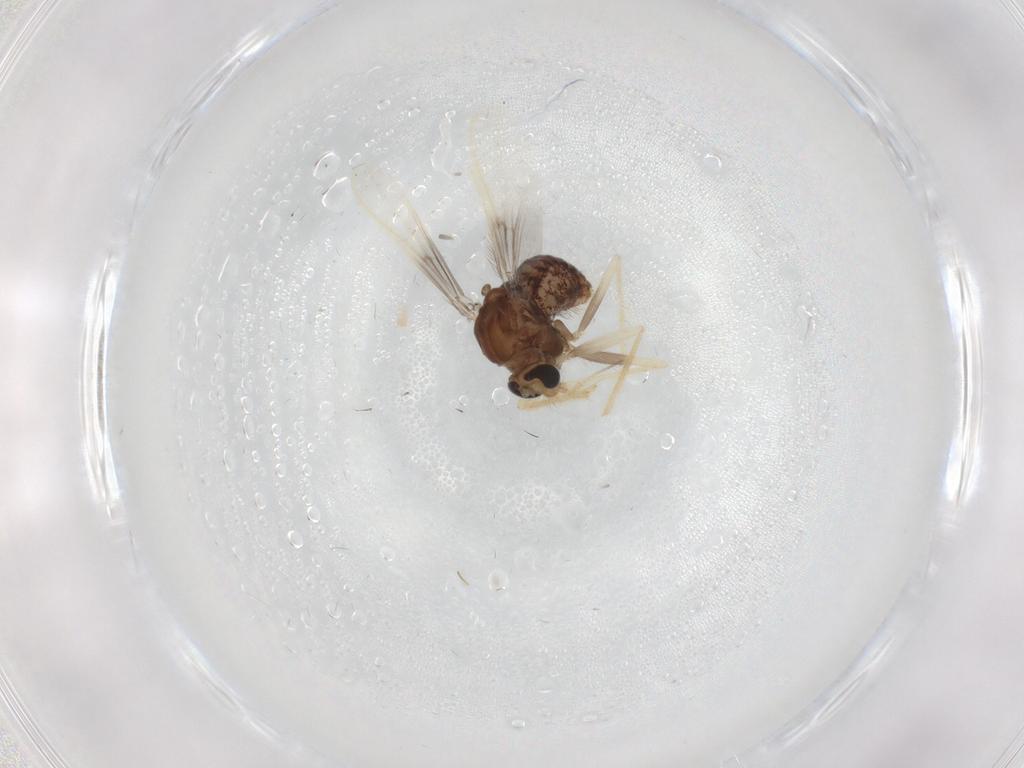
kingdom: Animalia
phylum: Arthropoda
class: Insecta
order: Diptera
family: Chironomidae
